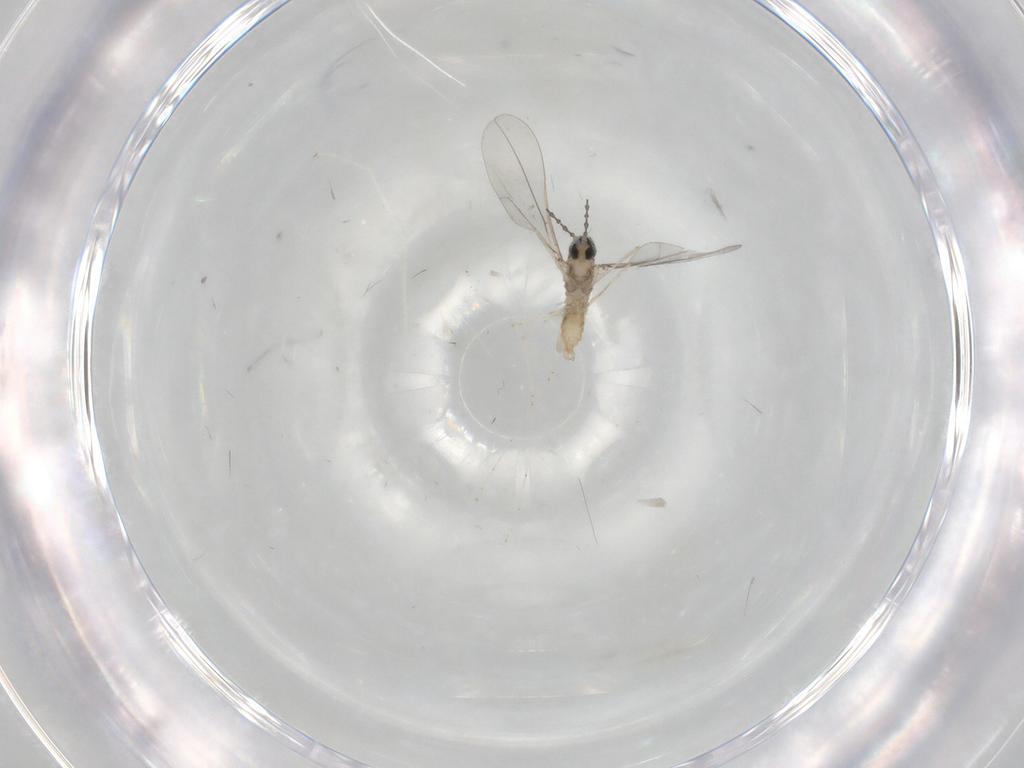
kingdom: Animalia
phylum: Arthropoda
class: Insecta
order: Diptera
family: Cecidomyiidae
